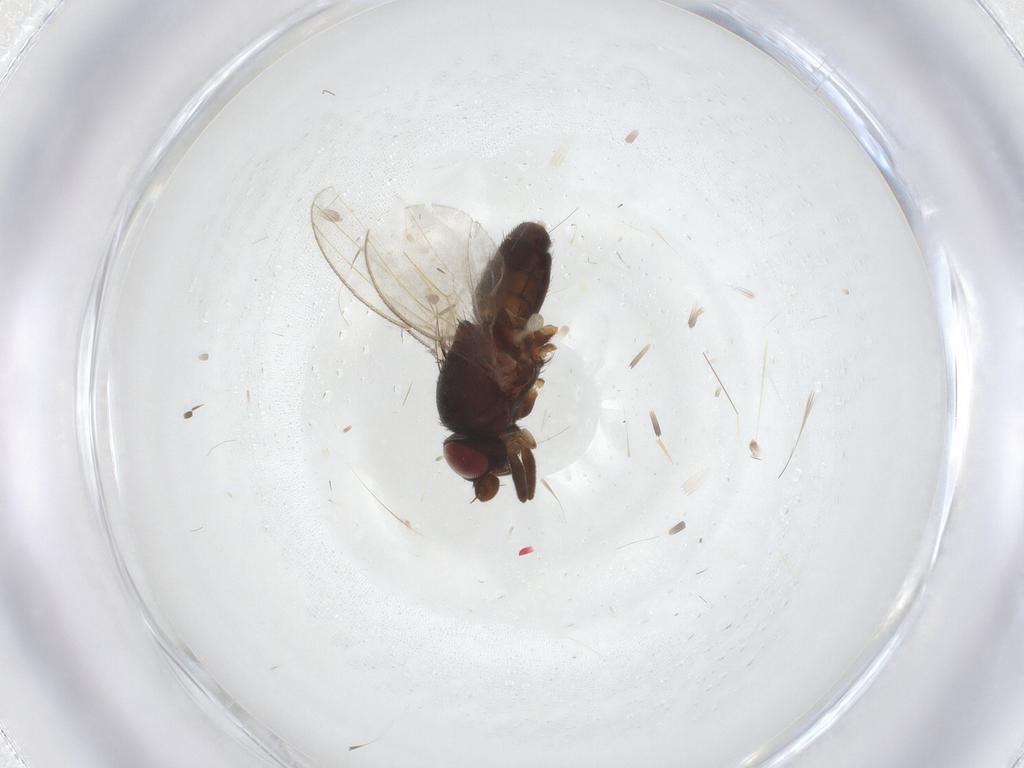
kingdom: Animalia
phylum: Arthropoda
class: Insecta
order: Diptera
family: Milichiidae
